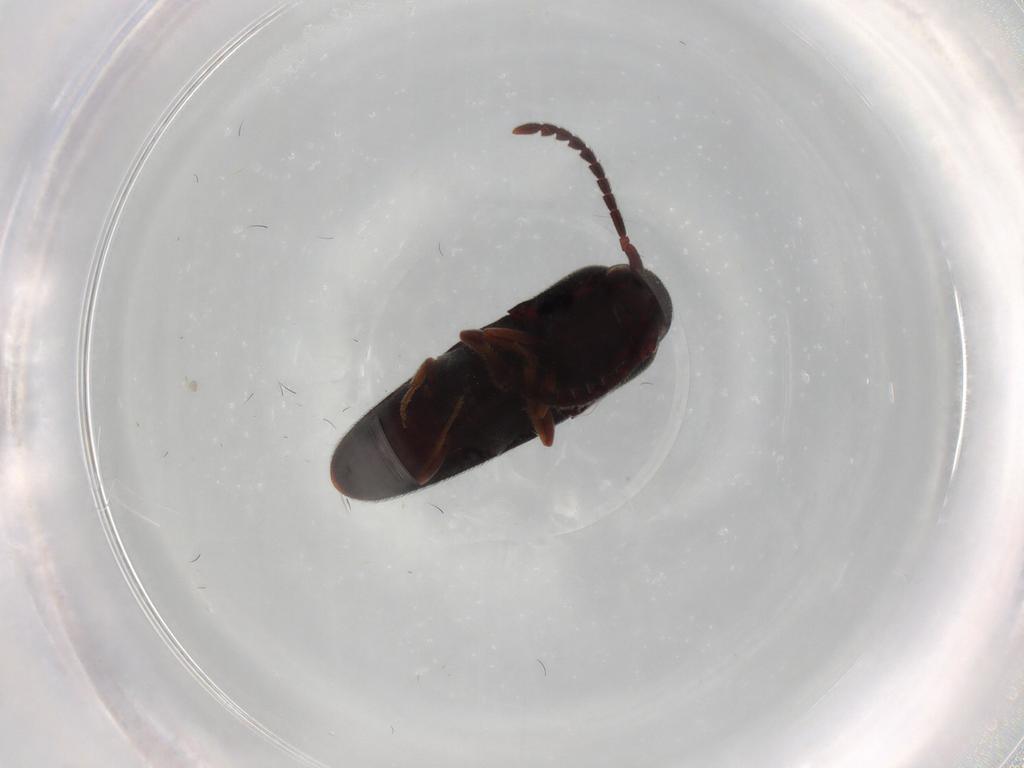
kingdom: Animalia
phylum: Arthropoda
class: Insecta
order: Coleoptera
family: Eucnemidae
